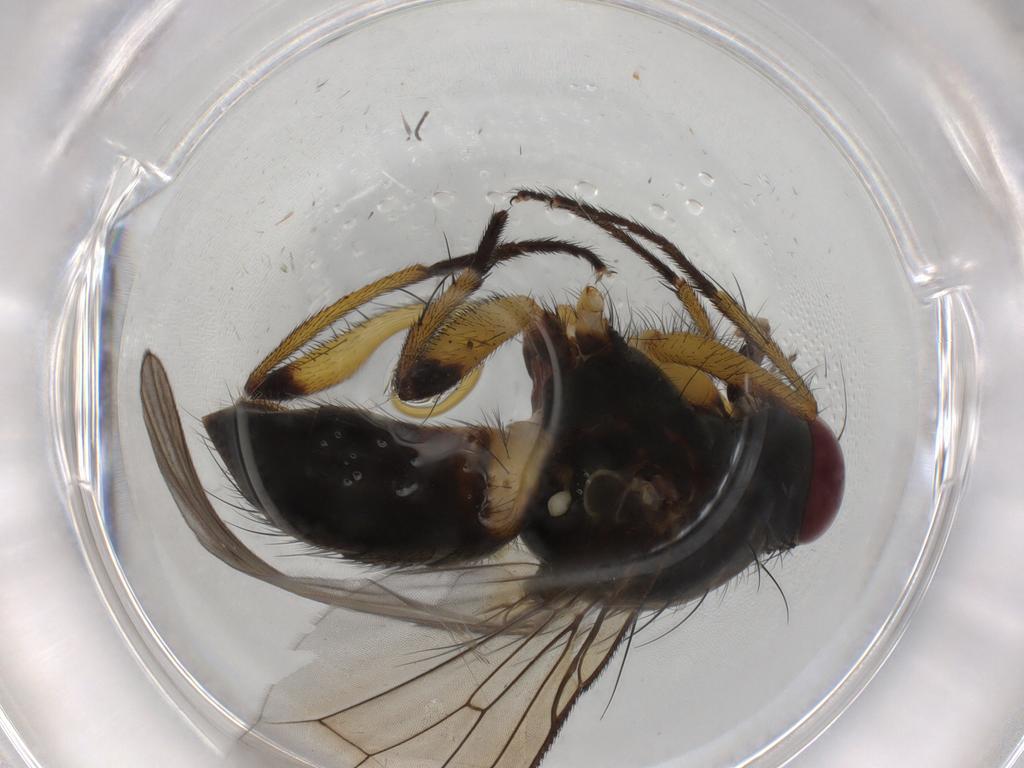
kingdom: Animalia
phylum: Arthropoda
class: Insecta
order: Diptera
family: Muscidae
